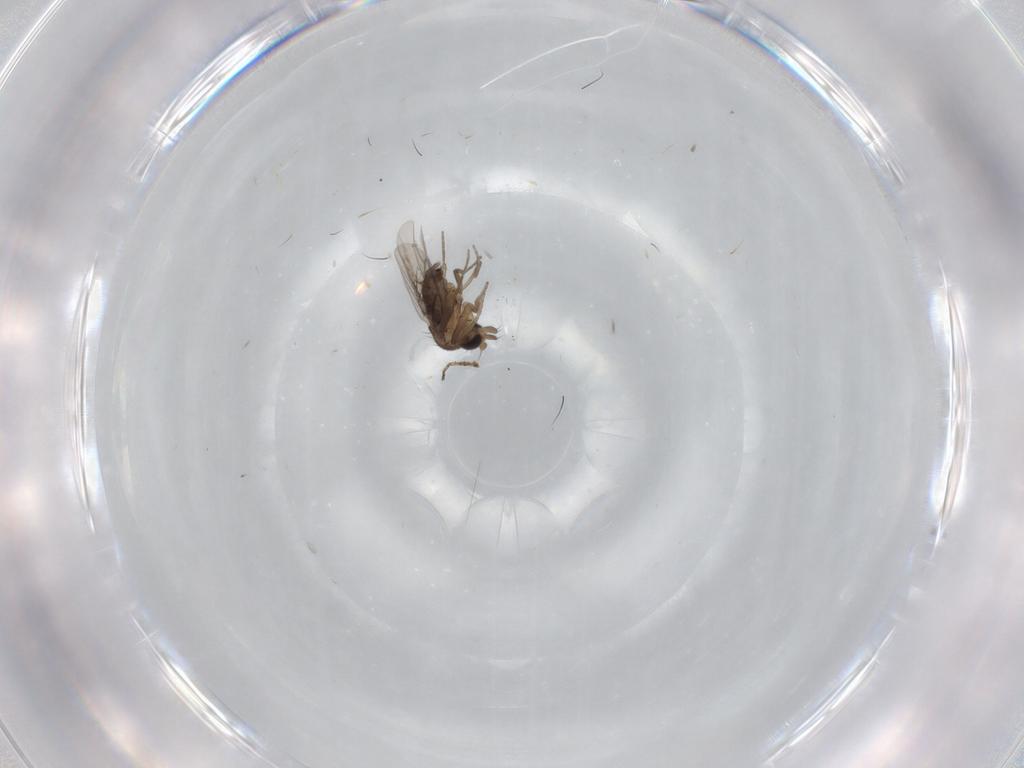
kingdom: Animalia
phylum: Arthropoda
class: Insecta
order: Diptera
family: Phoridae
